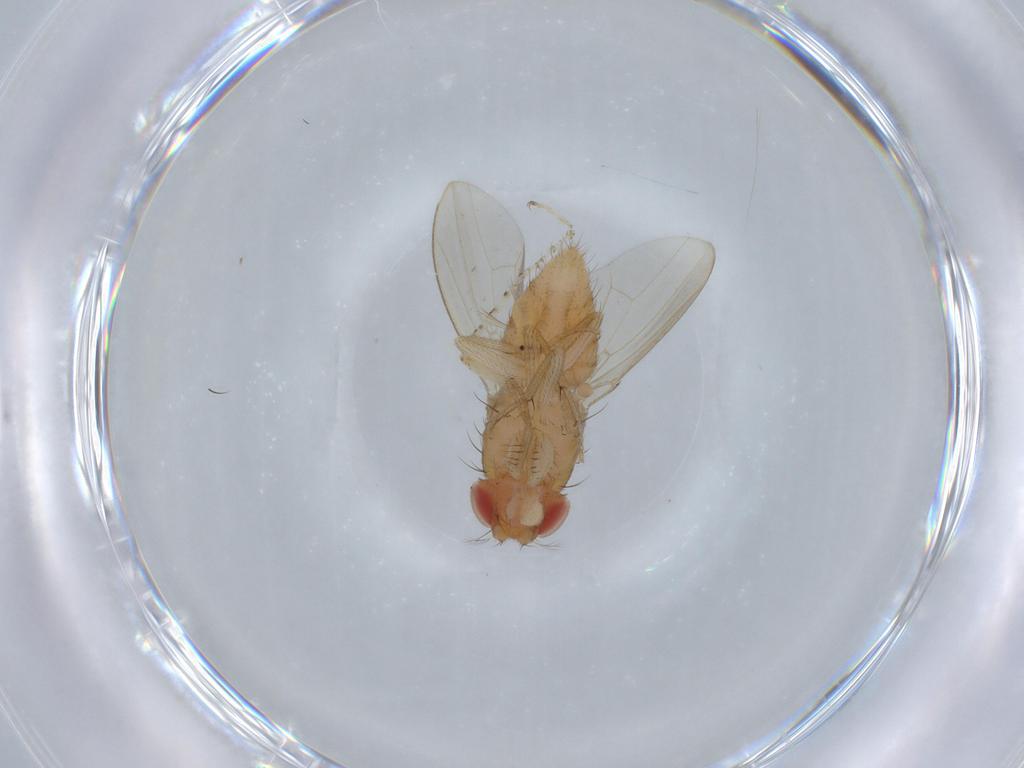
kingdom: Animalia
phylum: Arthropoda
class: Insecta
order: Diptera
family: Drosophilidae
